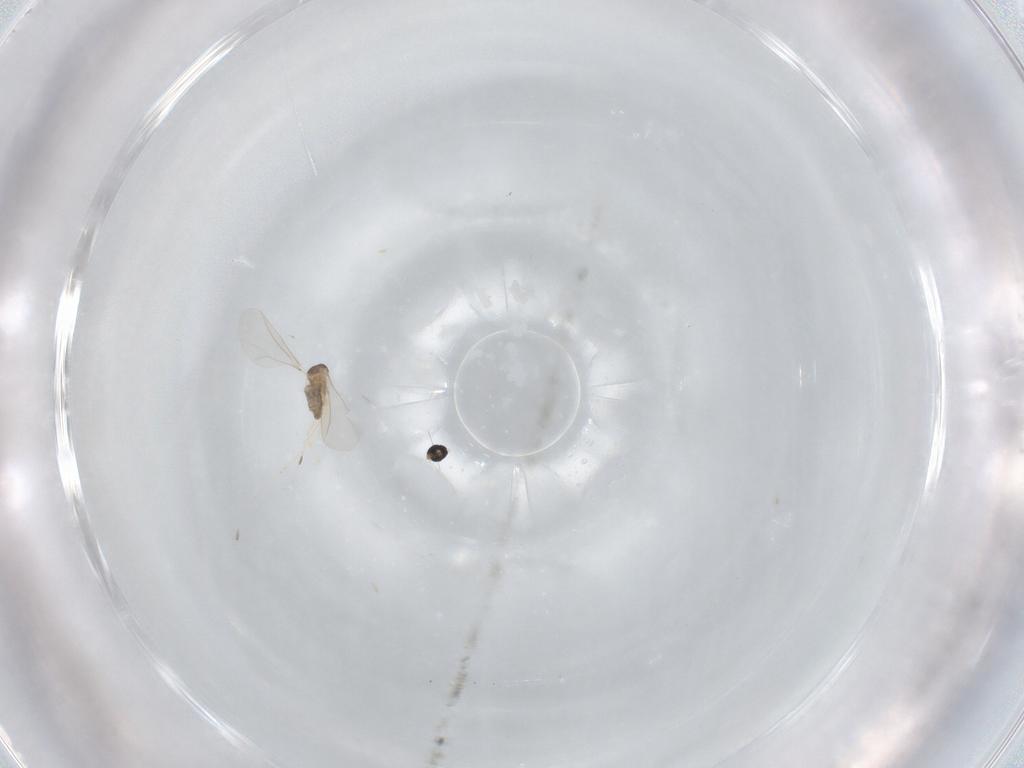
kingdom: Animalia
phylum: Arthropoda
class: Insecta
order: Diptera
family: Cecidomyiidae
